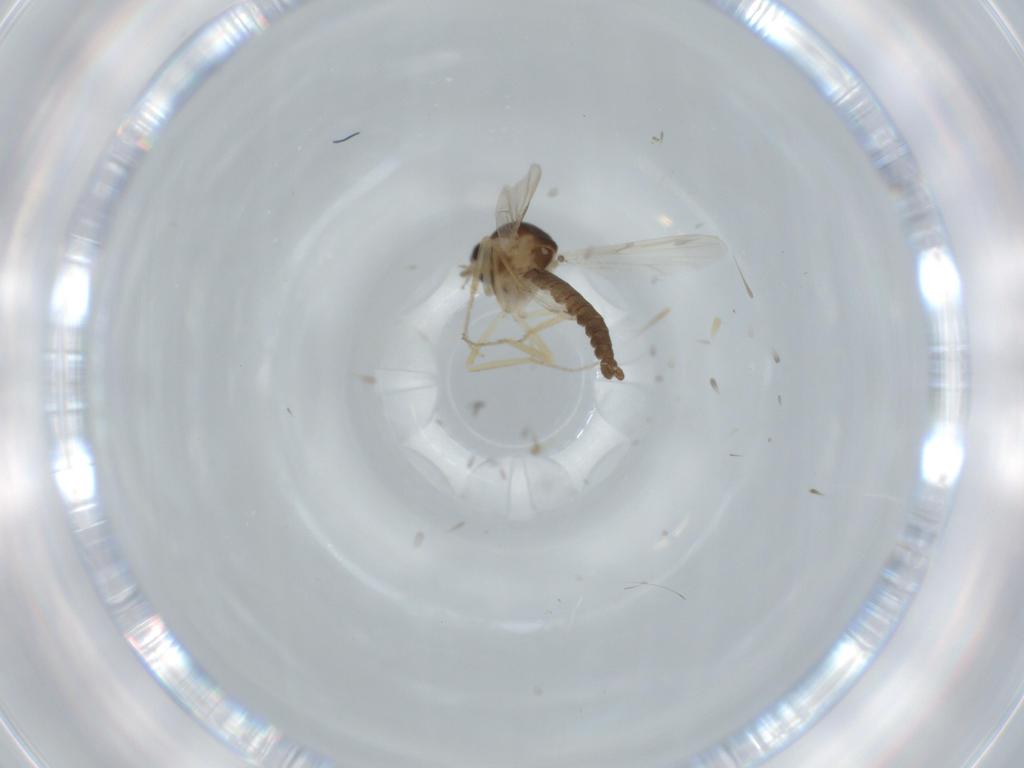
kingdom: Animalia
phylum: Arthropoda
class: Insecta
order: Diptera
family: Ceratopogonidae
